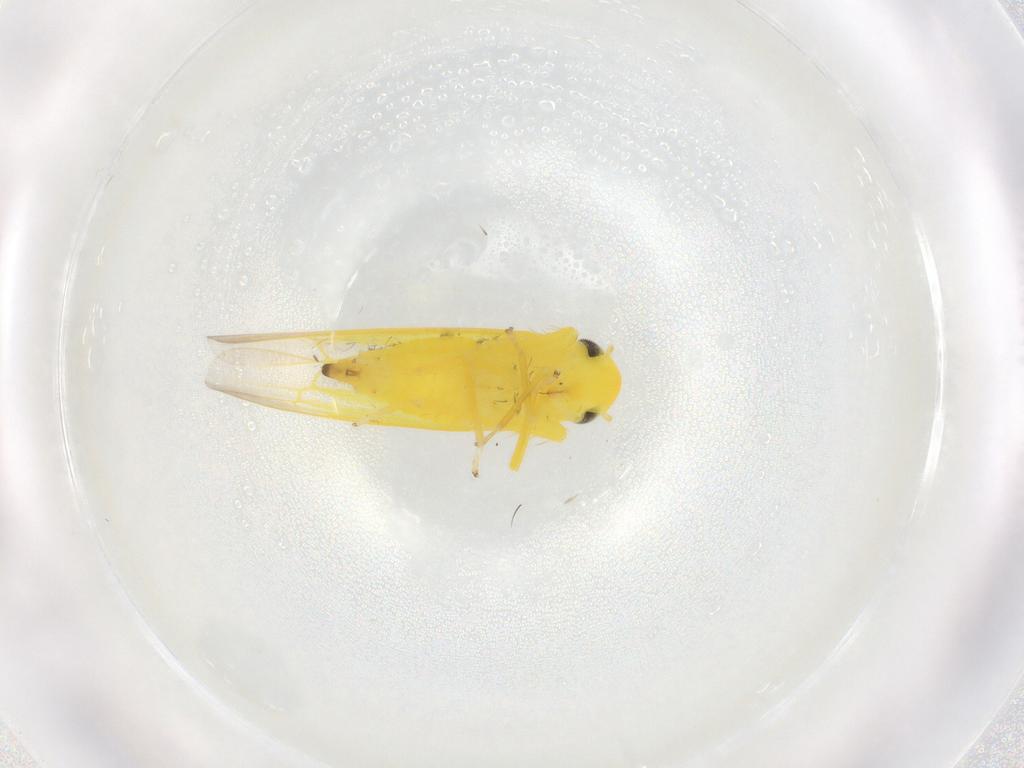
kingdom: Animalia
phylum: Arthropoda
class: Insecta
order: Hemiptera
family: Cicadellidae
